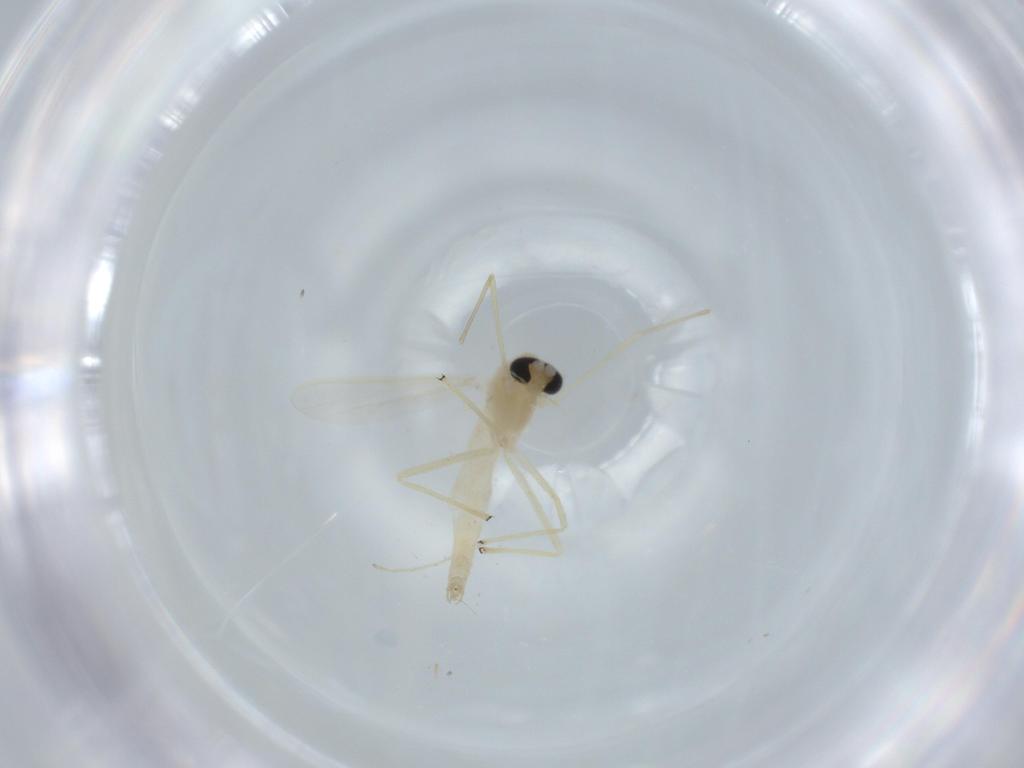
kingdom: Animalia
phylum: Arthropoda
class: Insecta
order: Diptera
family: Chironomidae
